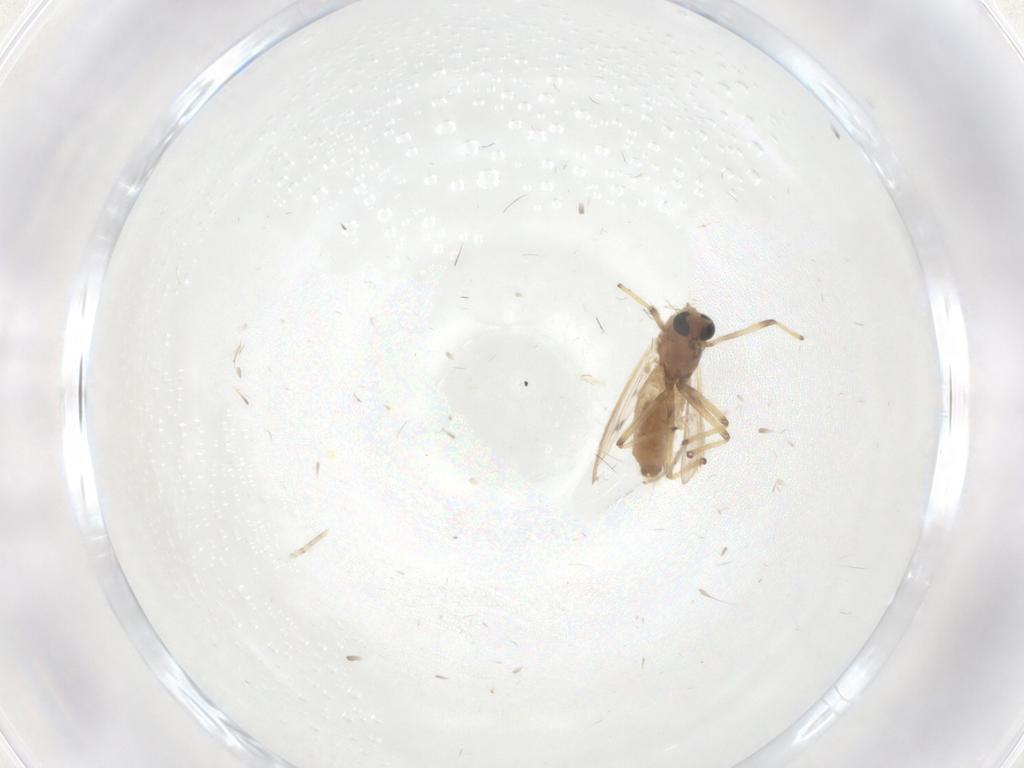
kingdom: Animalia
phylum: Arthropoda
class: Insecta
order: Diptera
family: Chironomidae
